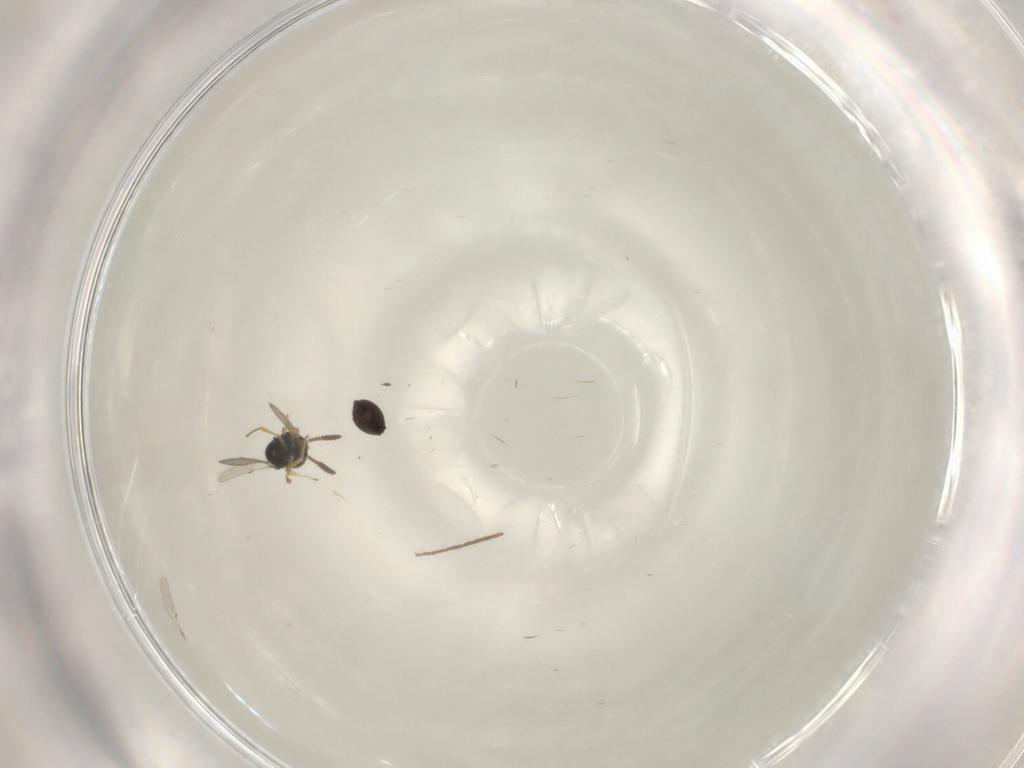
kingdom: Animalia
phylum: Arthropoda
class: Insecta
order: Hymenoptera
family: Scelionidae
